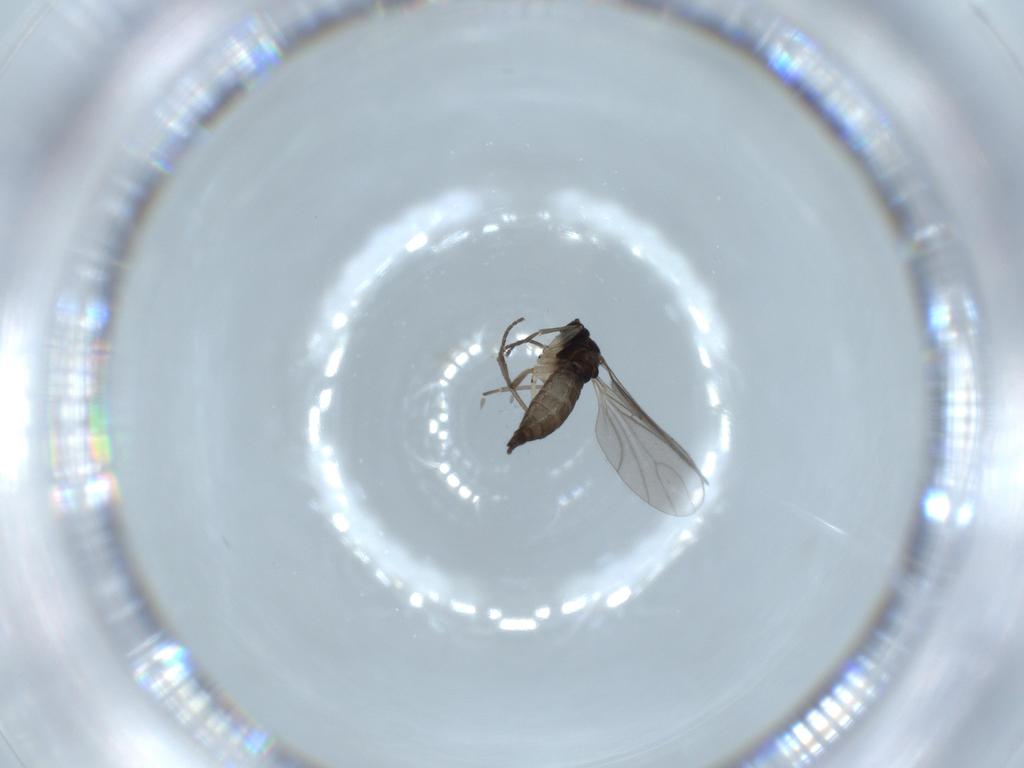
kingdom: Animalia
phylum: Arthropoda
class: Insecta
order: Diptera
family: Sciaridae
